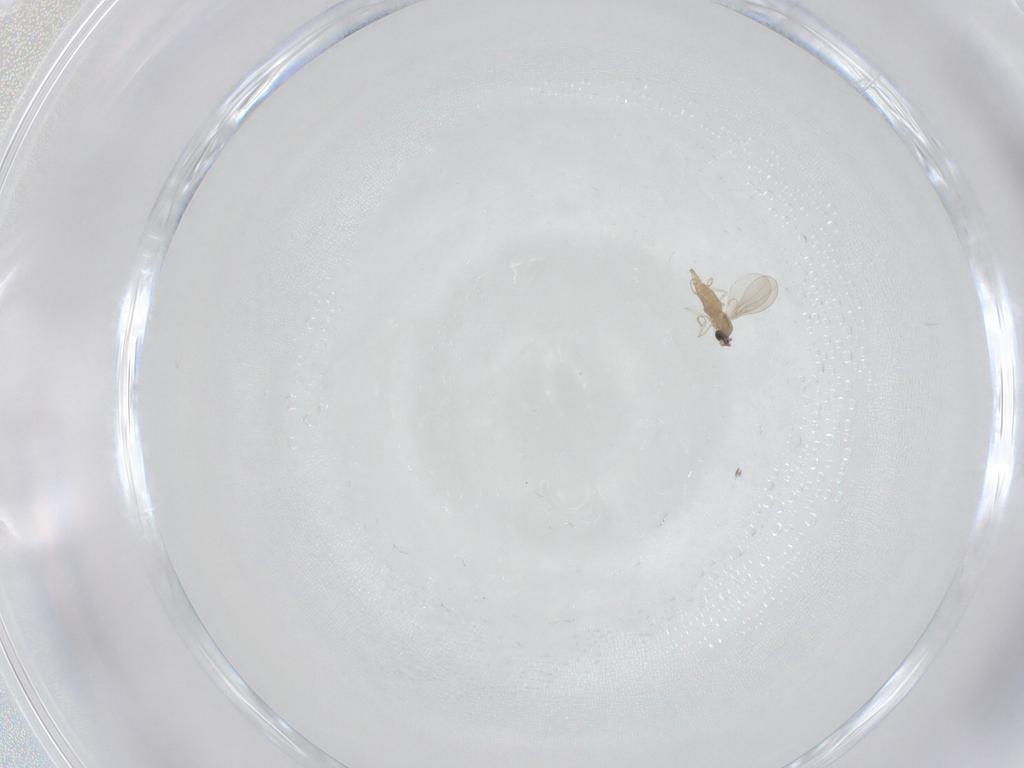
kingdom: Animalia
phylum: Arthropoda
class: Insecta
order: Diptera
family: Cecidomyiidae
